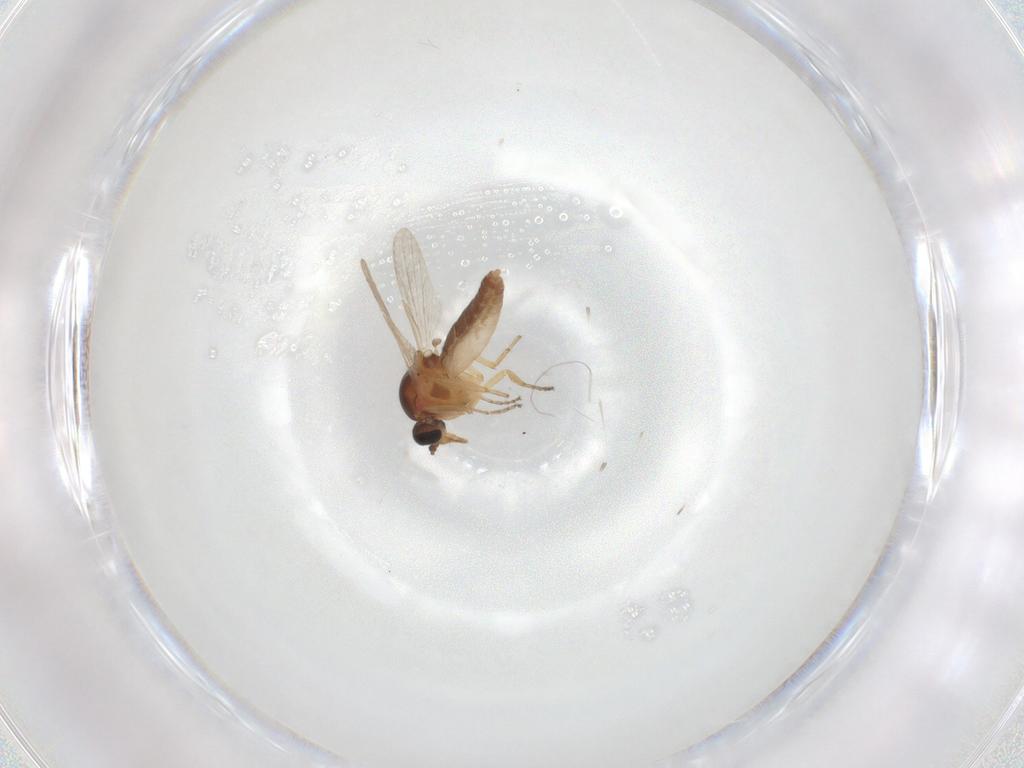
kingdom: Animalia
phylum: Arthropoda
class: Insecta
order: Diptera
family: Ceratopogonidae
